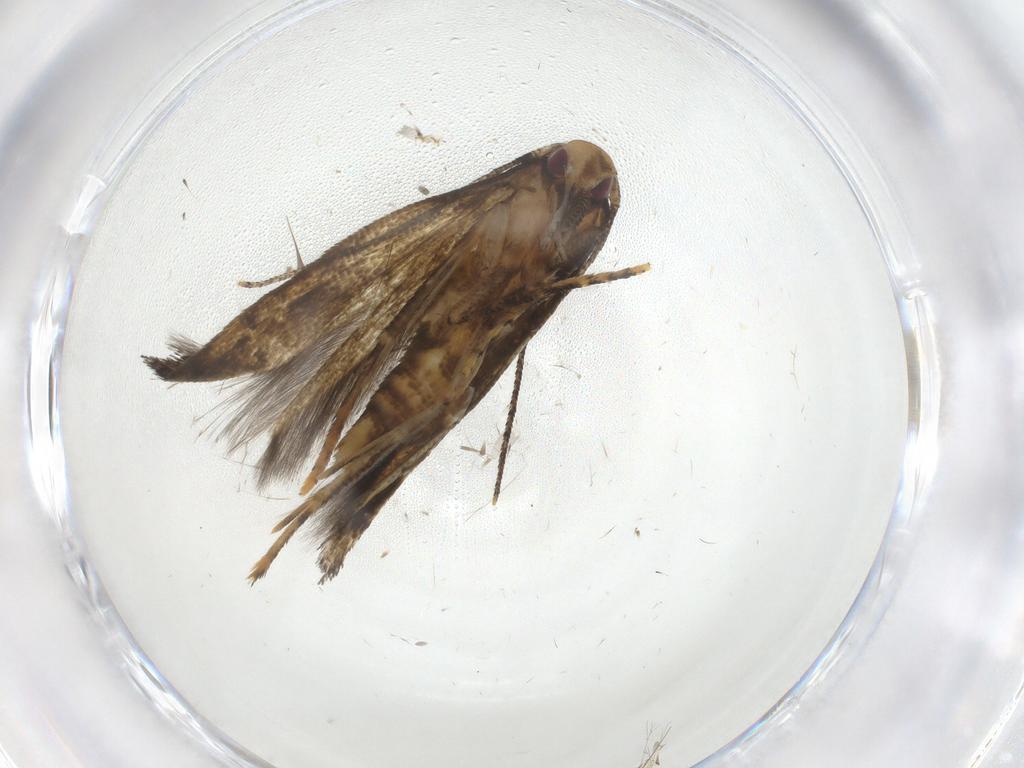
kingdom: Animalia
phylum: Arthropoda
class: Insecta
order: Lepidoptera
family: Erebidae
